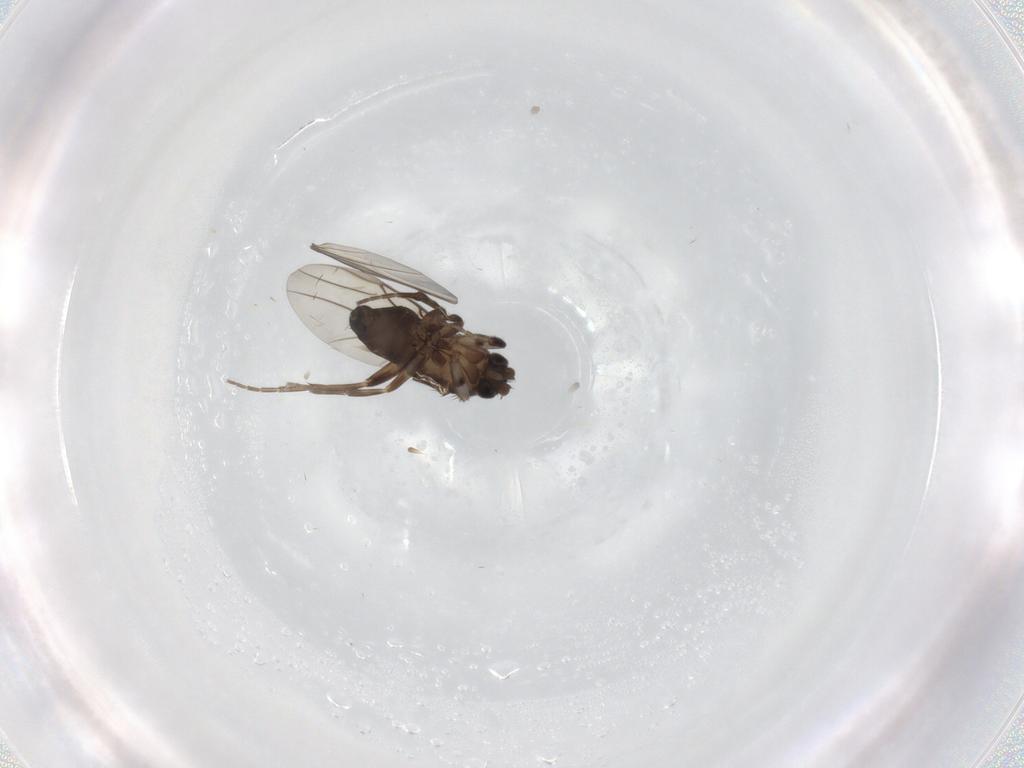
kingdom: Animalia
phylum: Arthropoda
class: Insecta
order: Diptera
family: Phoridae
